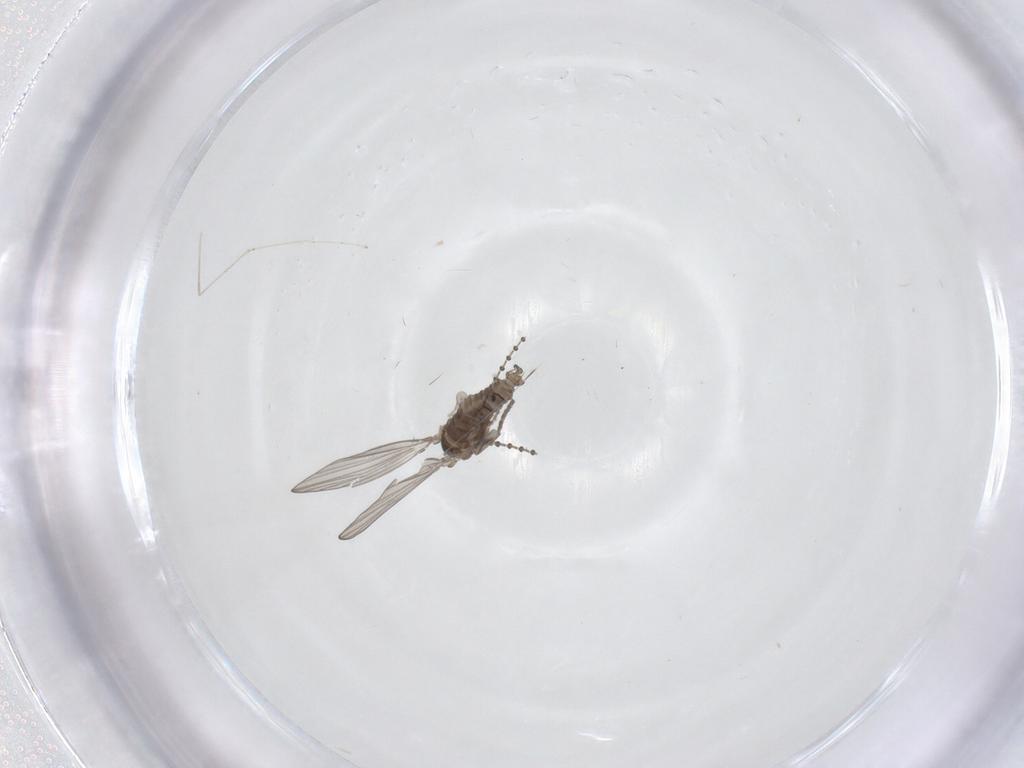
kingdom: Animalia
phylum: Arthropoda
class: Insecta
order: Diptera
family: Psychodidae
